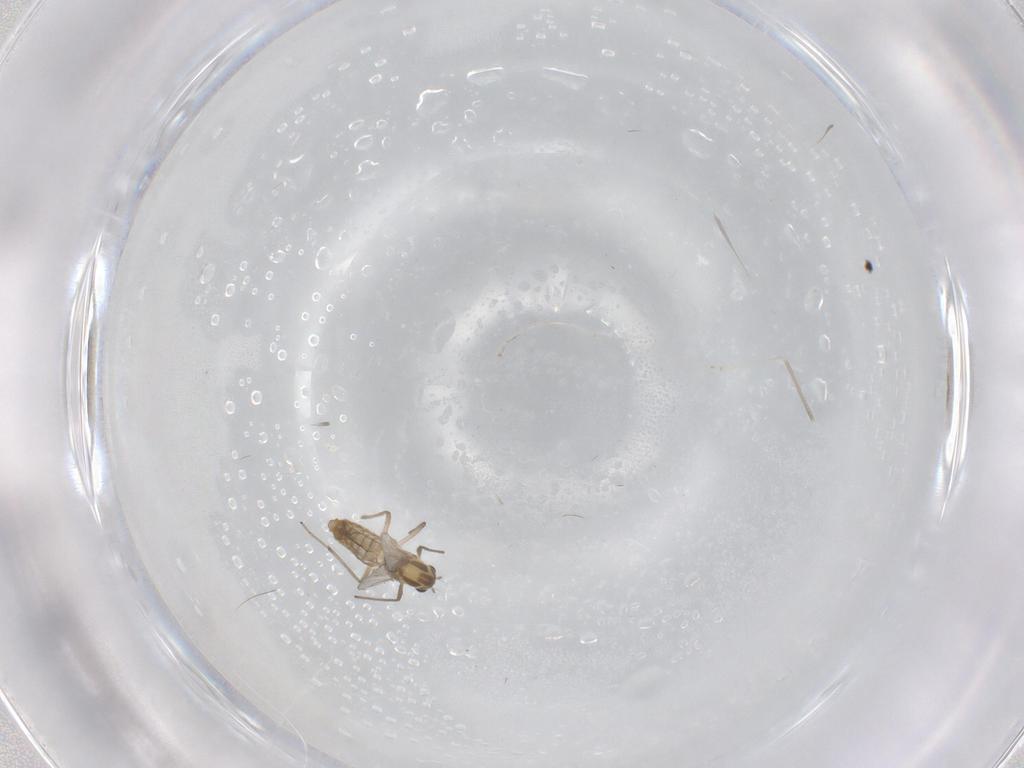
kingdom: Animalia
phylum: Arthropoda
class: Insecta
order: Diptera
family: Cecidomyiidae
